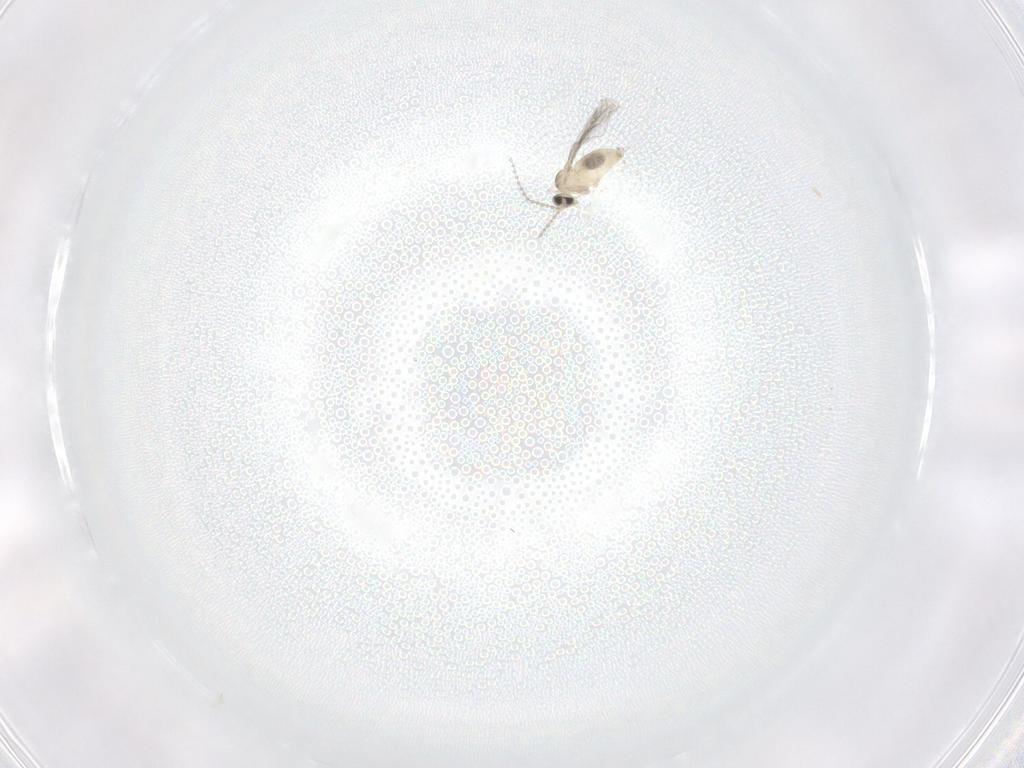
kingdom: Animalia
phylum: Arthropoda
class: Insecta
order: Diptera
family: Cecidomyiidae
